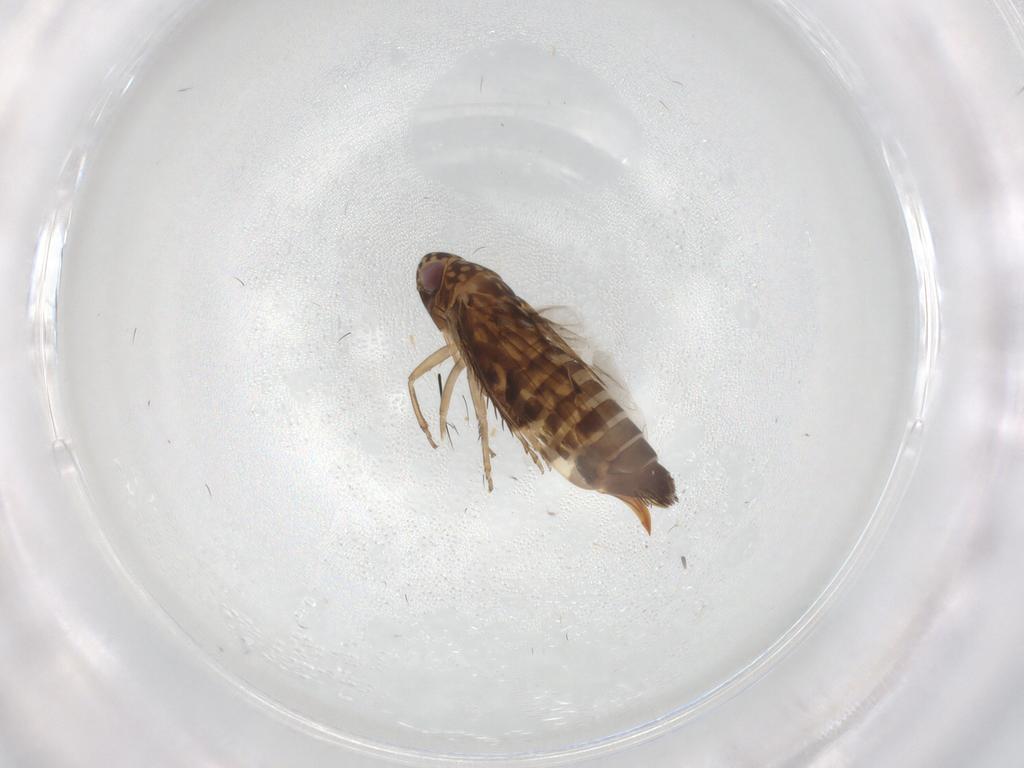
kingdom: Animalia
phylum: Arthropoda
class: Insecta
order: Hemiptera
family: Cicadellidae
